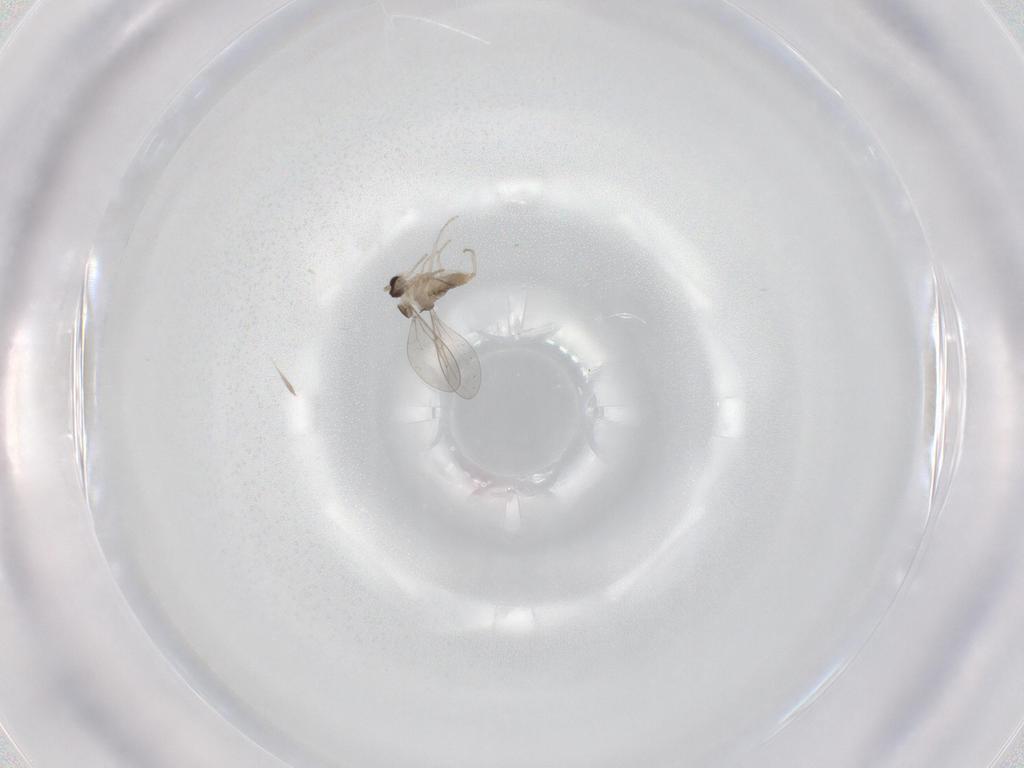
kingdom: Animalia
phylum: Arthropoda
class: Insecta
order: Diptera
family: Cecidomyiidae
